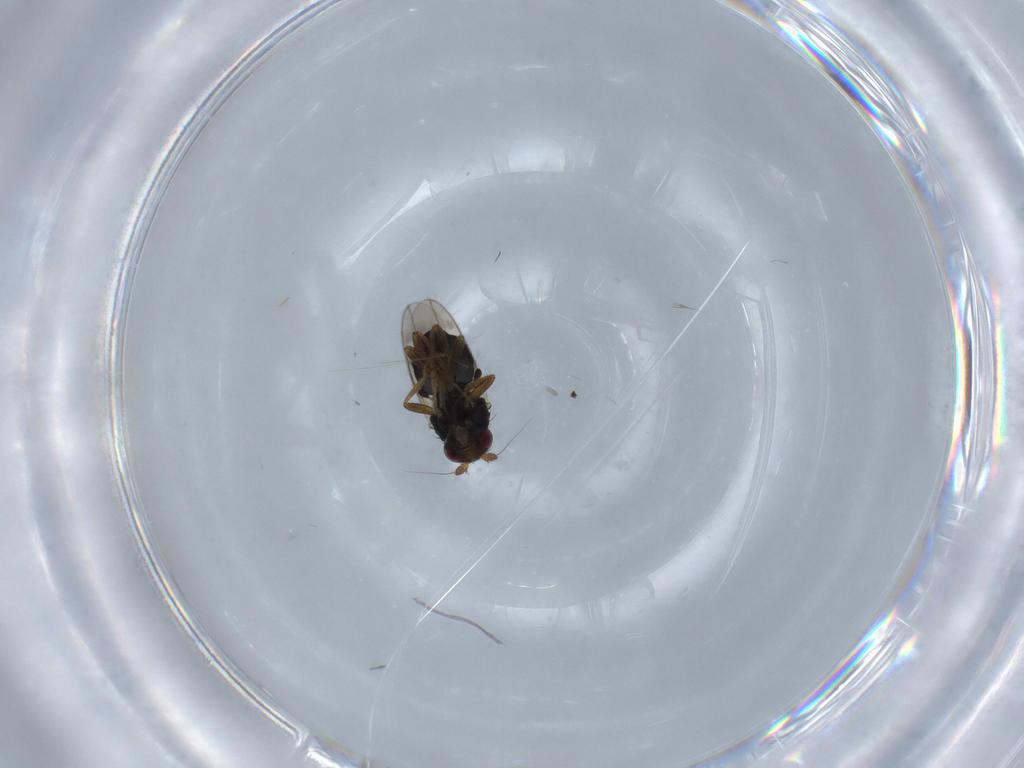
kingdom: Animalia
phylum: Arthropoda
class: Insecta
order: Diptera
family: Sphaeroceridae
